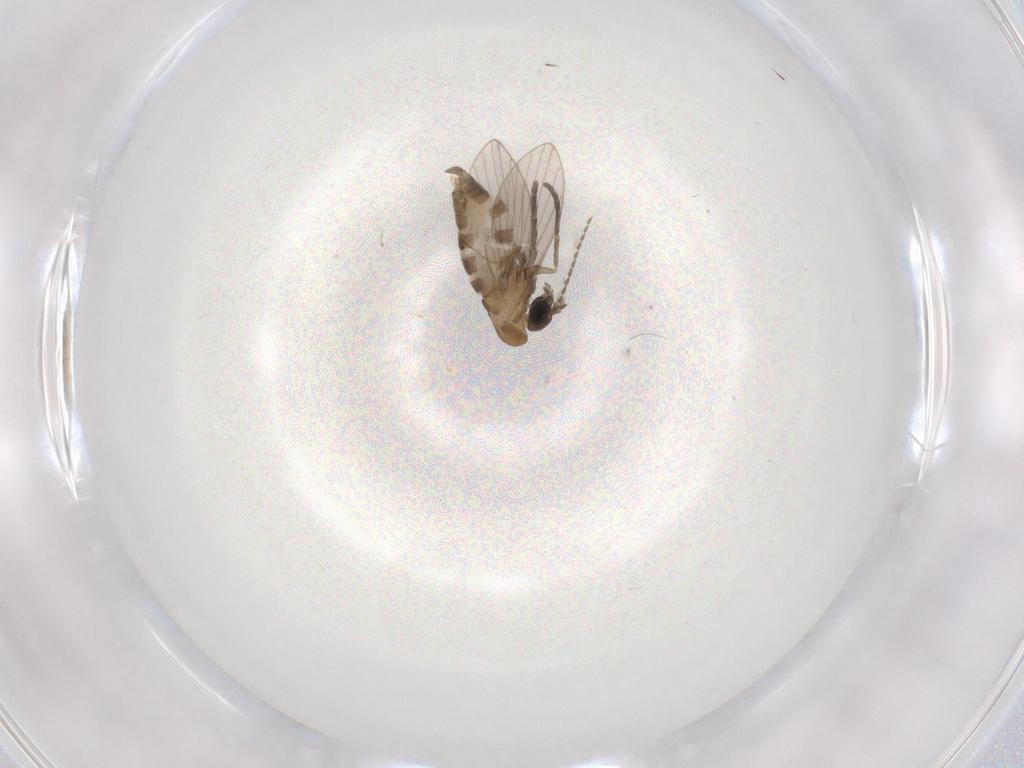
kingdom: Animalia
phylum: Arthropoda
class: Insecta
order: Diptera
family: Psychodidae
